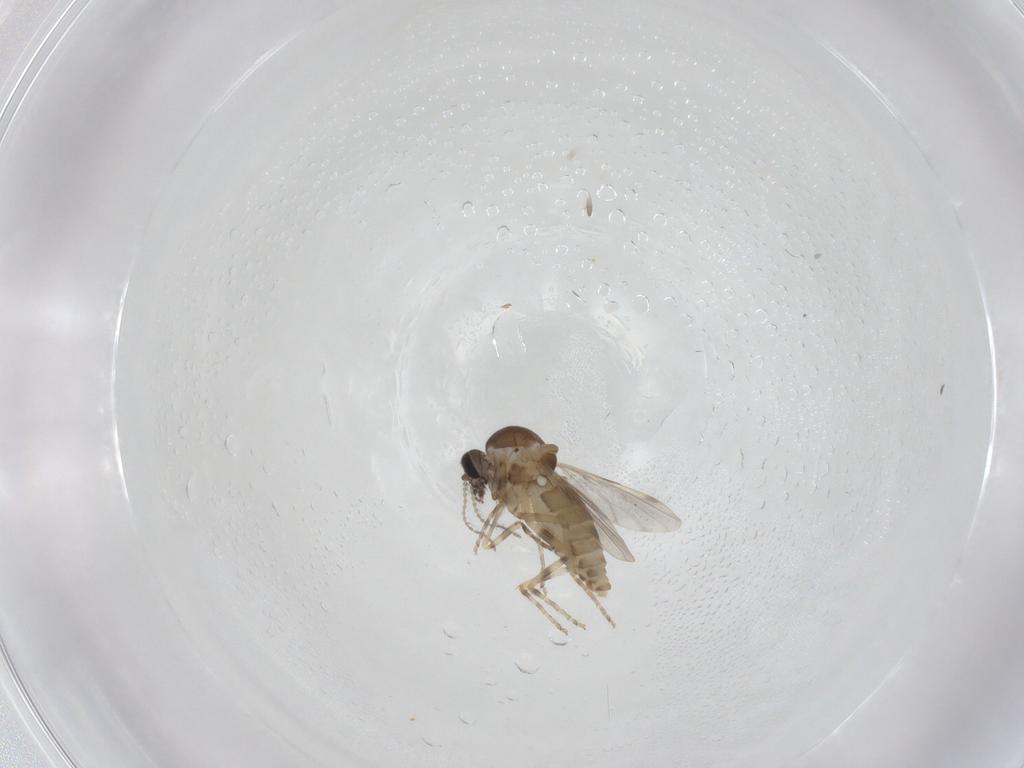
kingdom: Animalia
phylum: Arthropoda
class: Insecta
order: Diptera
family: Ceratopogonidae
